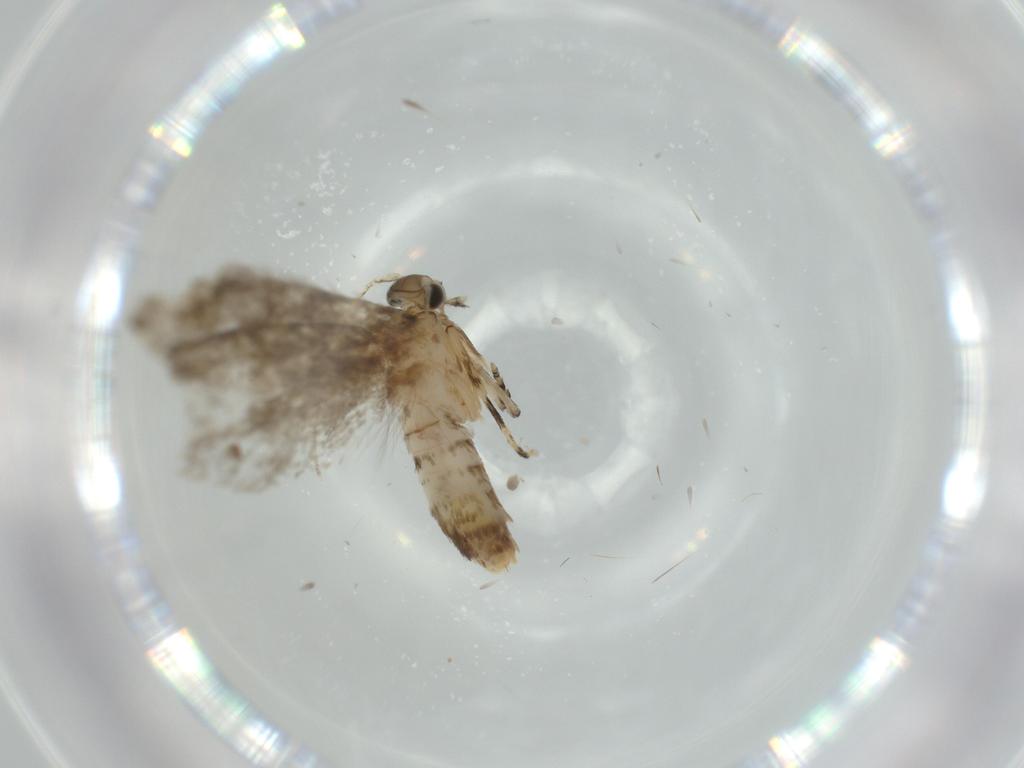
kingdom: Animalia
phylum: Arthropoda
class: Insecta
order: Lepidoptera
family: Tineidae
